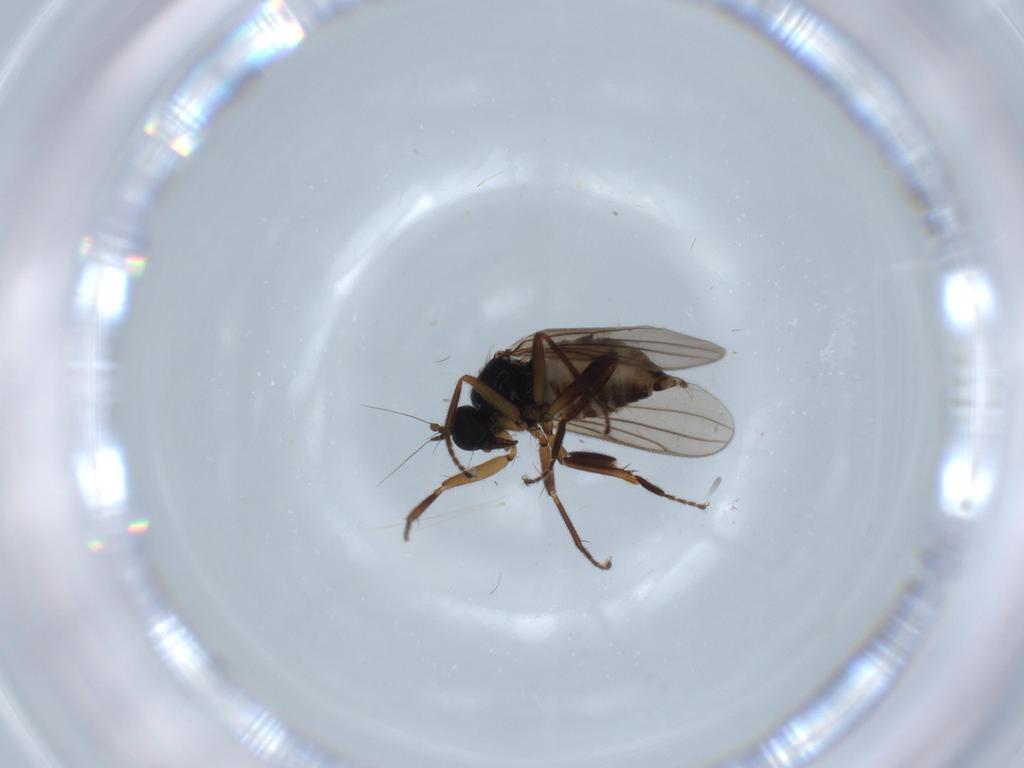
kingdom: Animalia
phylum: Arthropoda
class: Insecta
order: Diptera
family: Hybotidae
